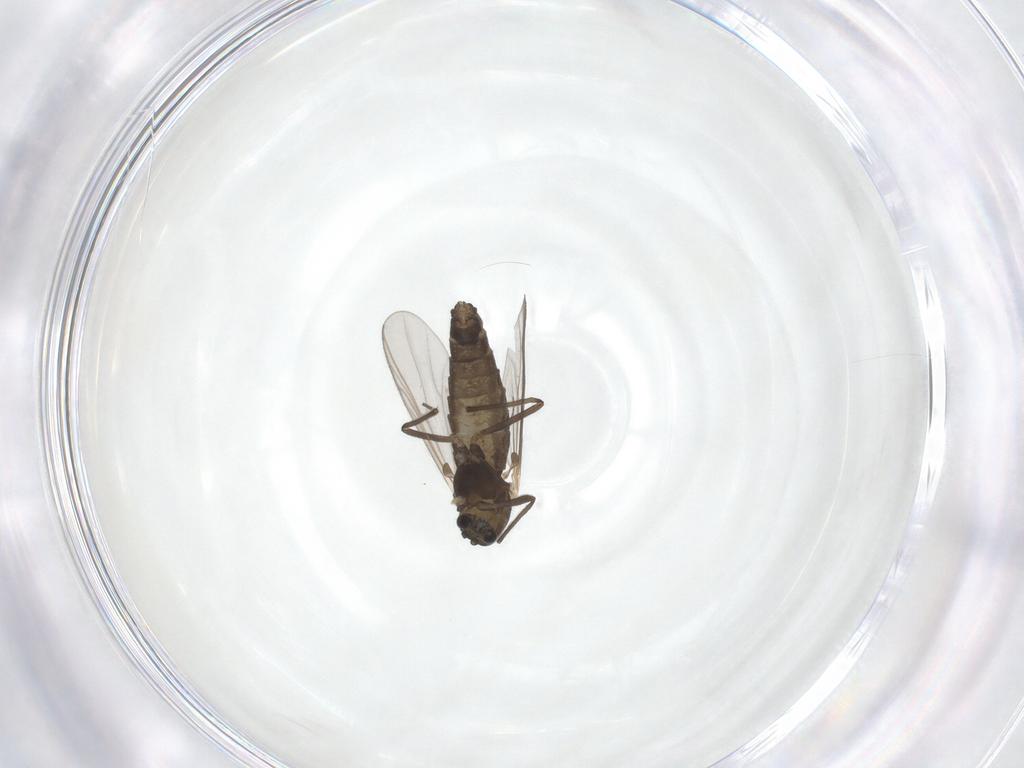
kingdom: Animalia
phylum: Arthropoda
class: Insecta
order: Diptera
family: Chironomidae
